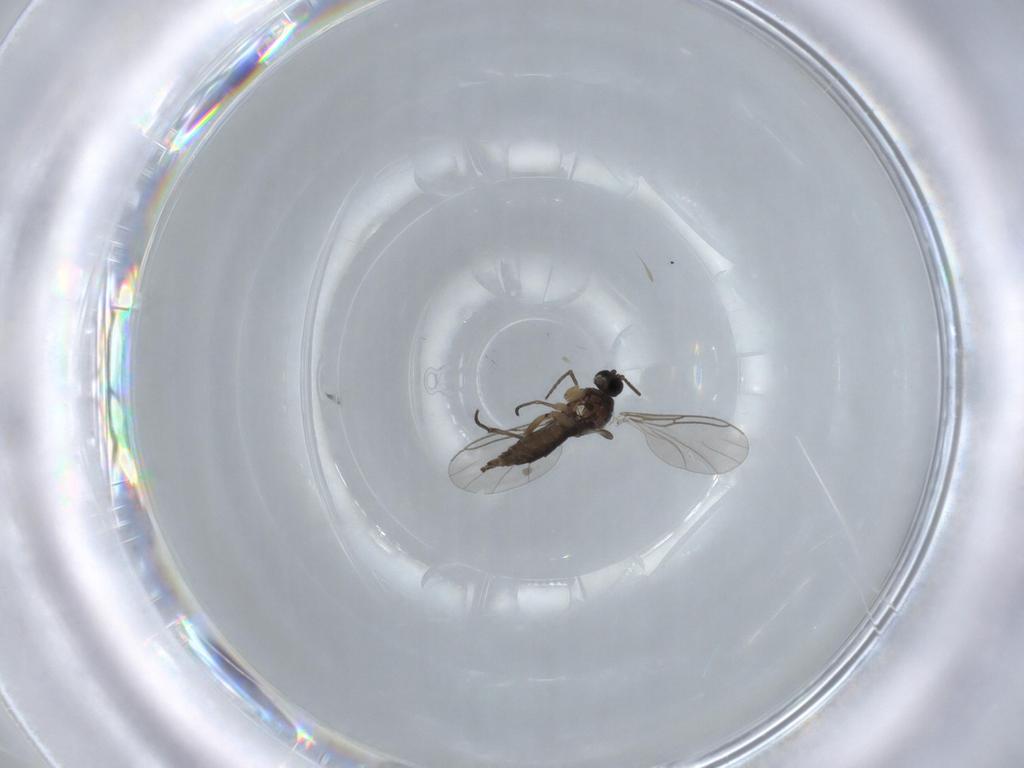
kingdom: Animalia
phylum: Arthropoda
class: Insecta
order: Diptera
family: Sciaridae
